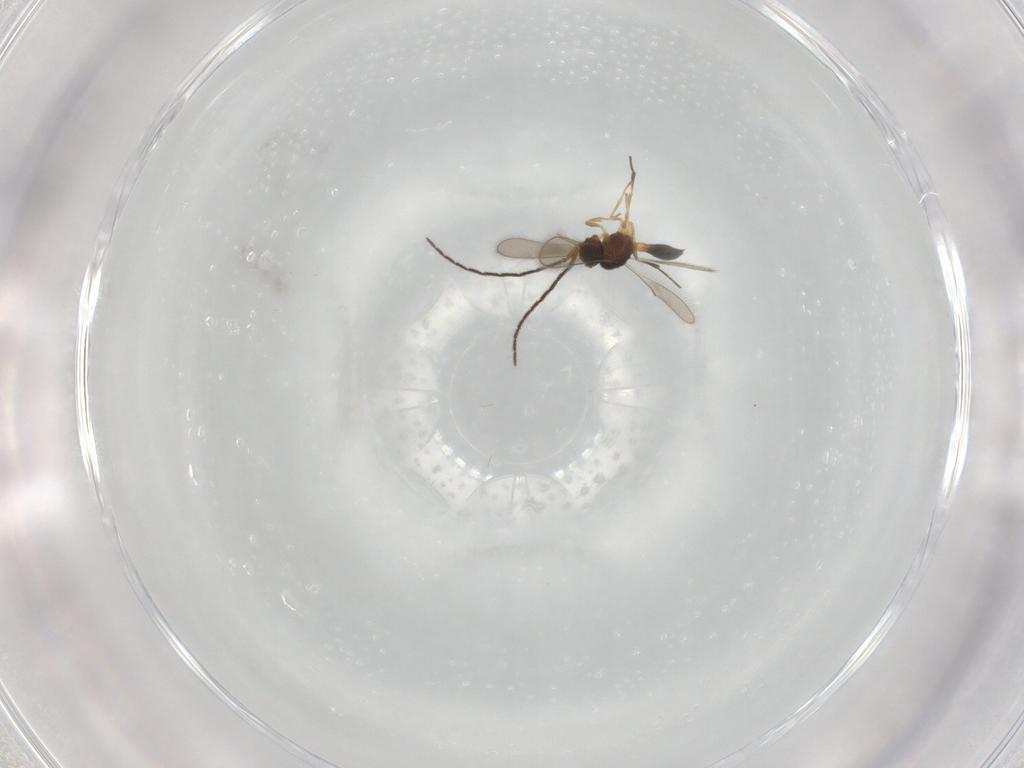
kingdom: Animalia
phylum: Arthropoda
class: Insecta
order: Hymenoptera
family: Scelionidae
